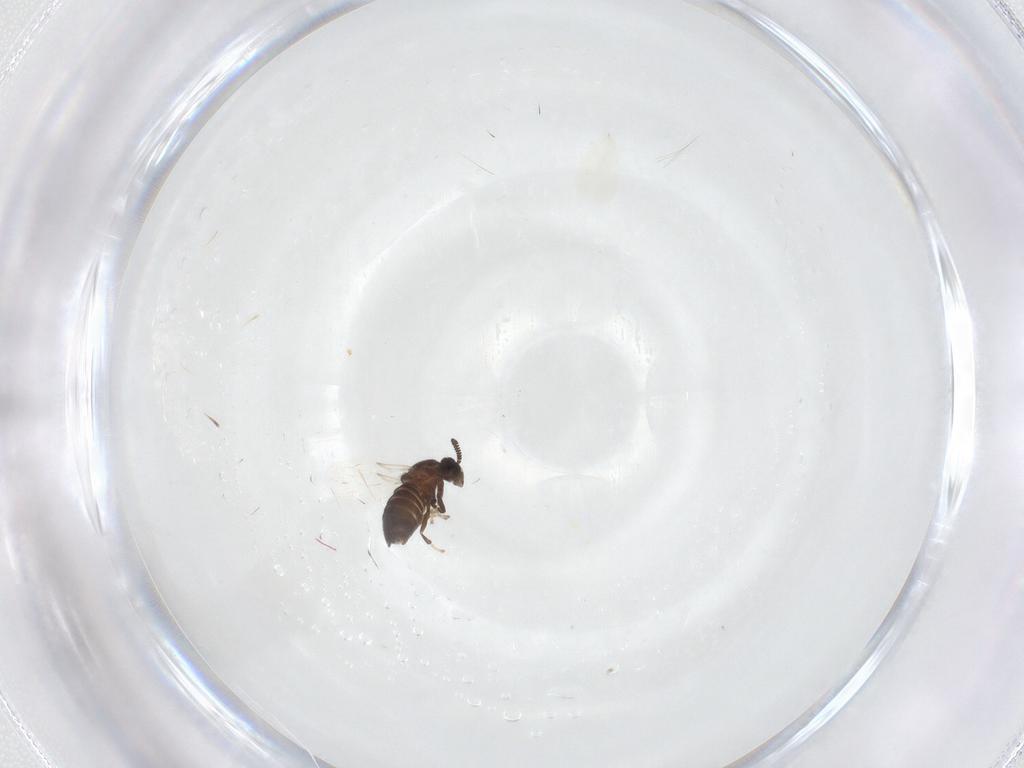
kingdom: Animalia
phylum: Arthropoda
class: Insecta
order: Diptera
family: Scatopsidae
